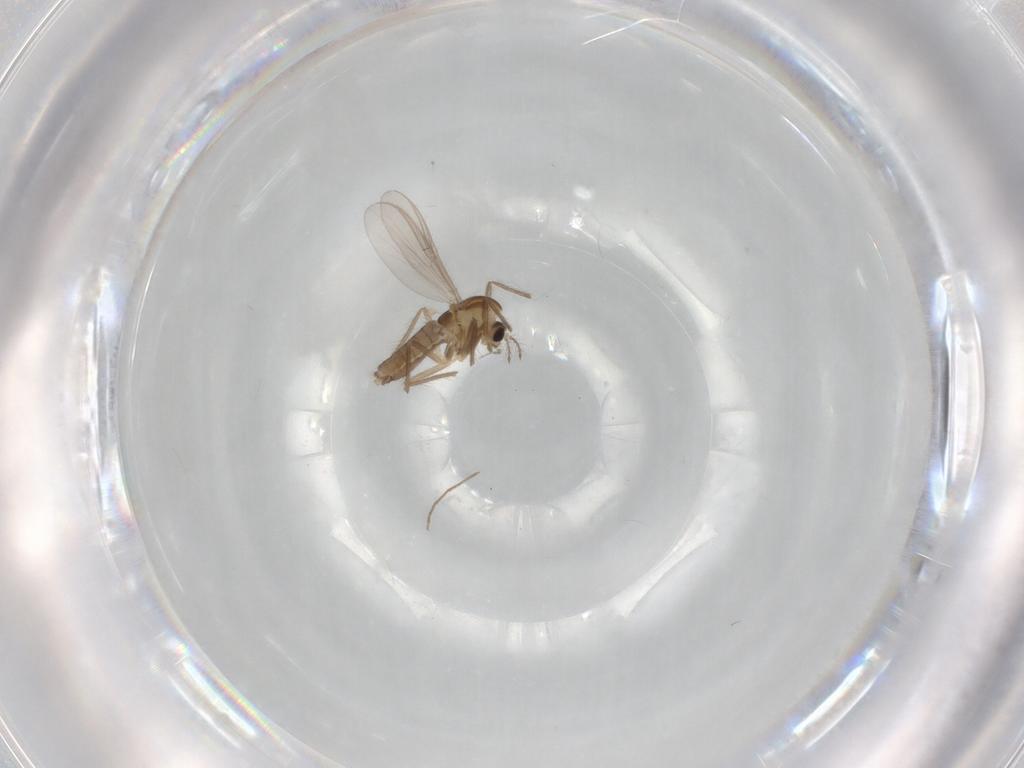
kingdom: Animalia
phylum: Arthropoda
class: Insecta
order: Diptera
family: Chironomidae
